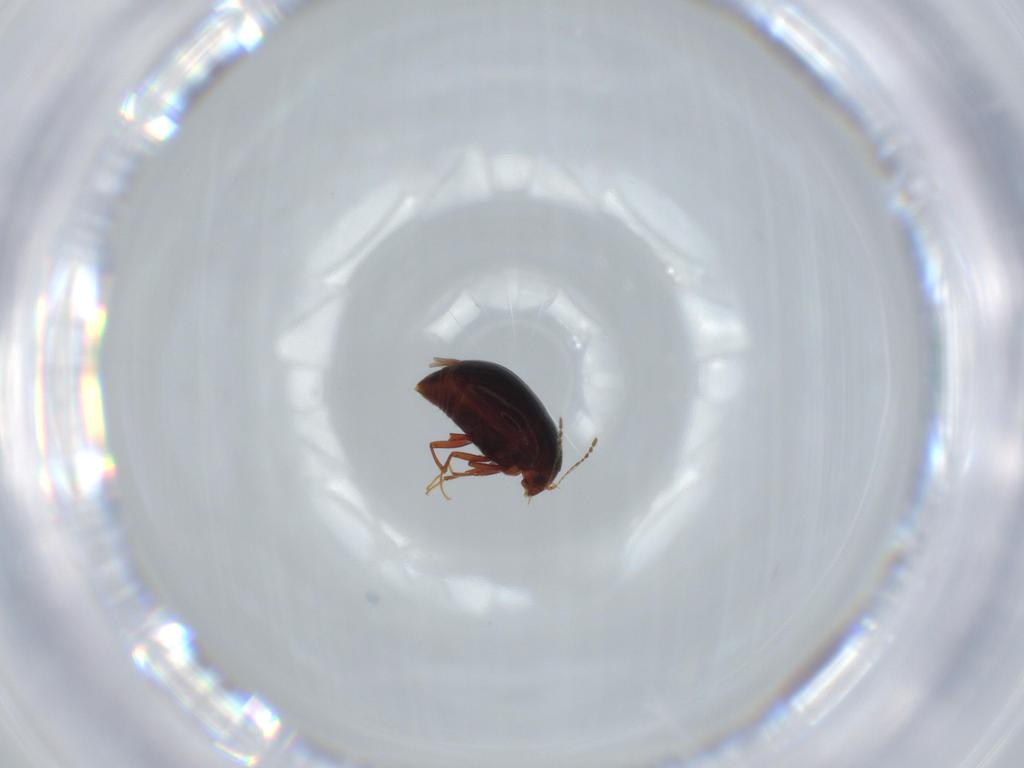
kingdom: Animalia
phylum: Arthropoda
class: Insecta
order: Coleoptera
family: Staphylinidae
